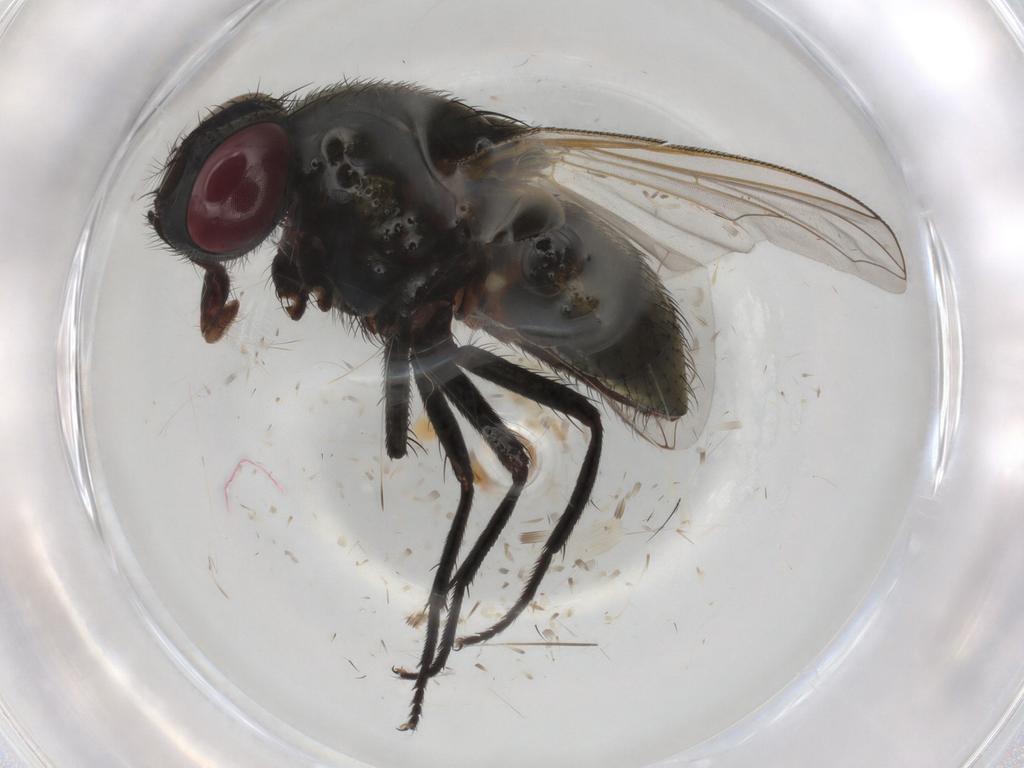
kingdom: Animalia
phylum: Arthropoda
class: Insecta
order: Diptera
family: Muscidae
